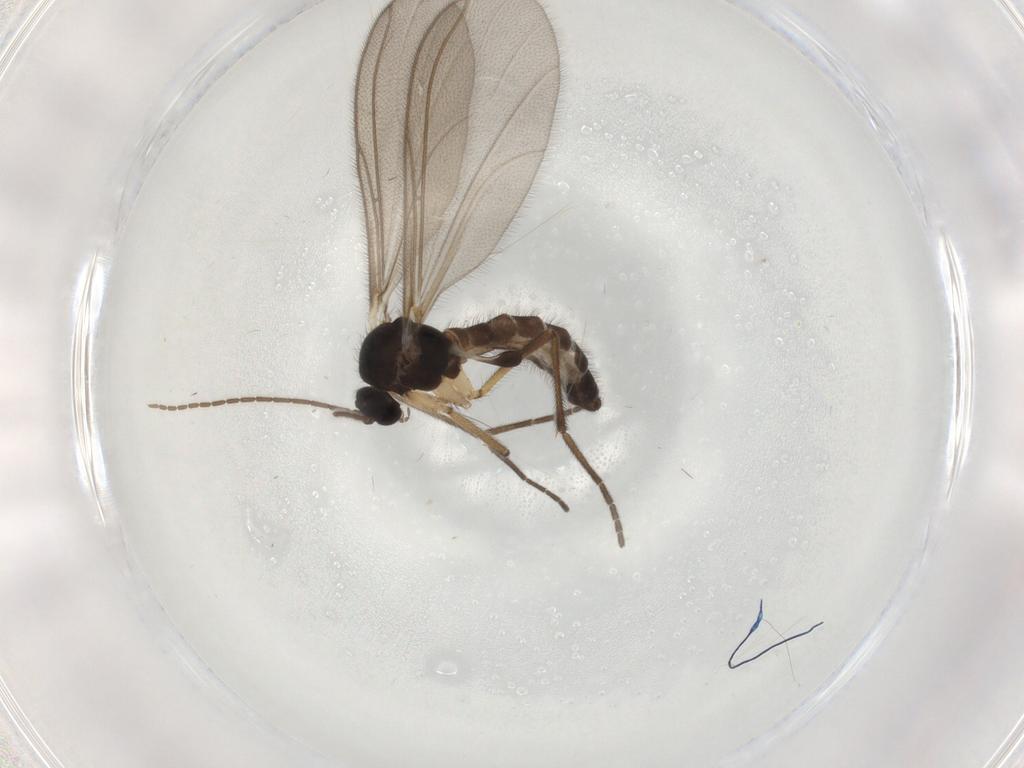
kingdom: Animalia
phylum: Arthropoda
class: Insecta
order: Diptera
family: Mycetophilidae
